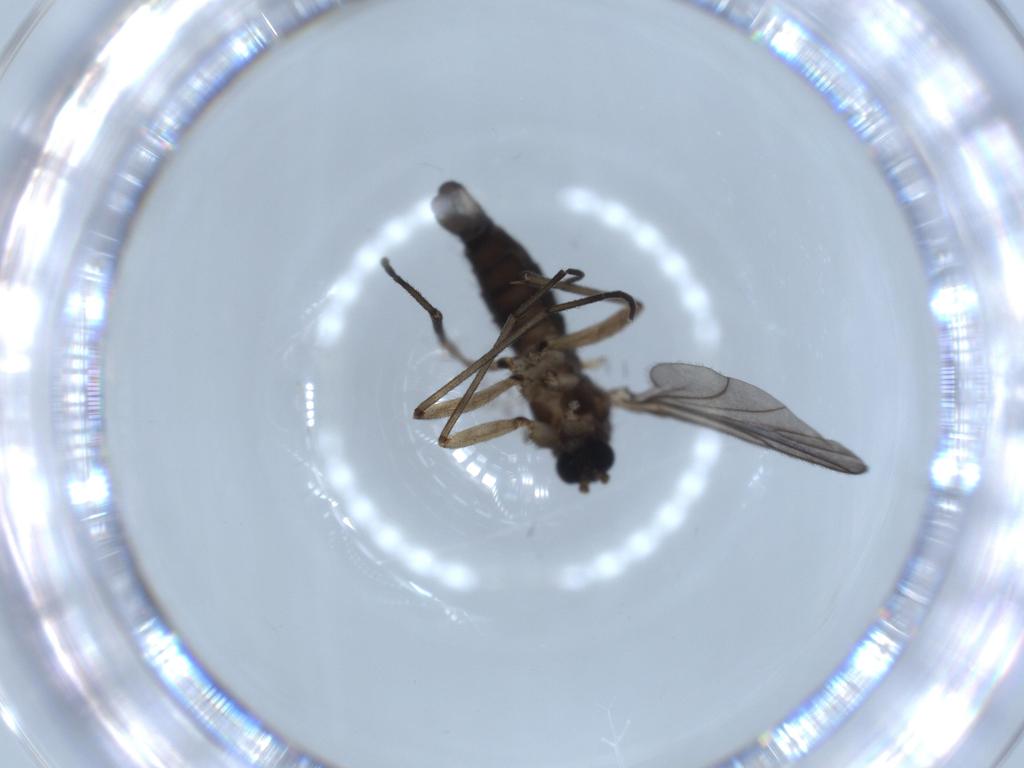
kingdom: Animalia
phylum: Arthropoda
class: Insecta
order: Diptera
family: Sciaridae
